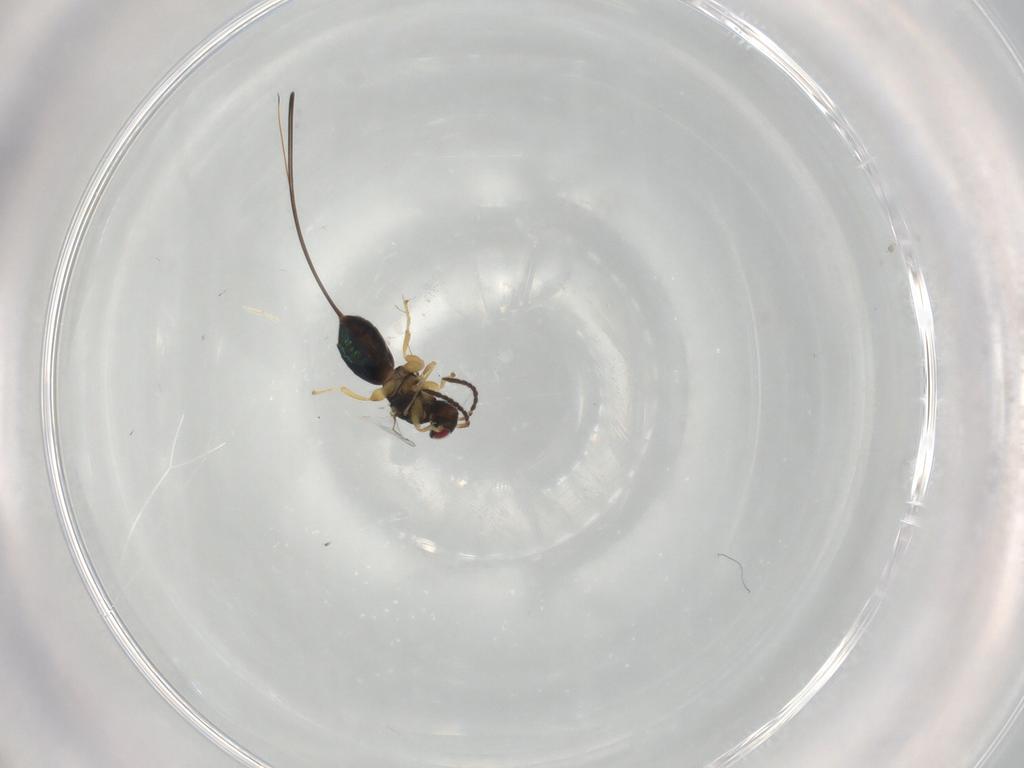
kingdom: Animalia
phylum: Arthropoda
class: Insecta
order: Hymenoptera
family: Pteromalidae
